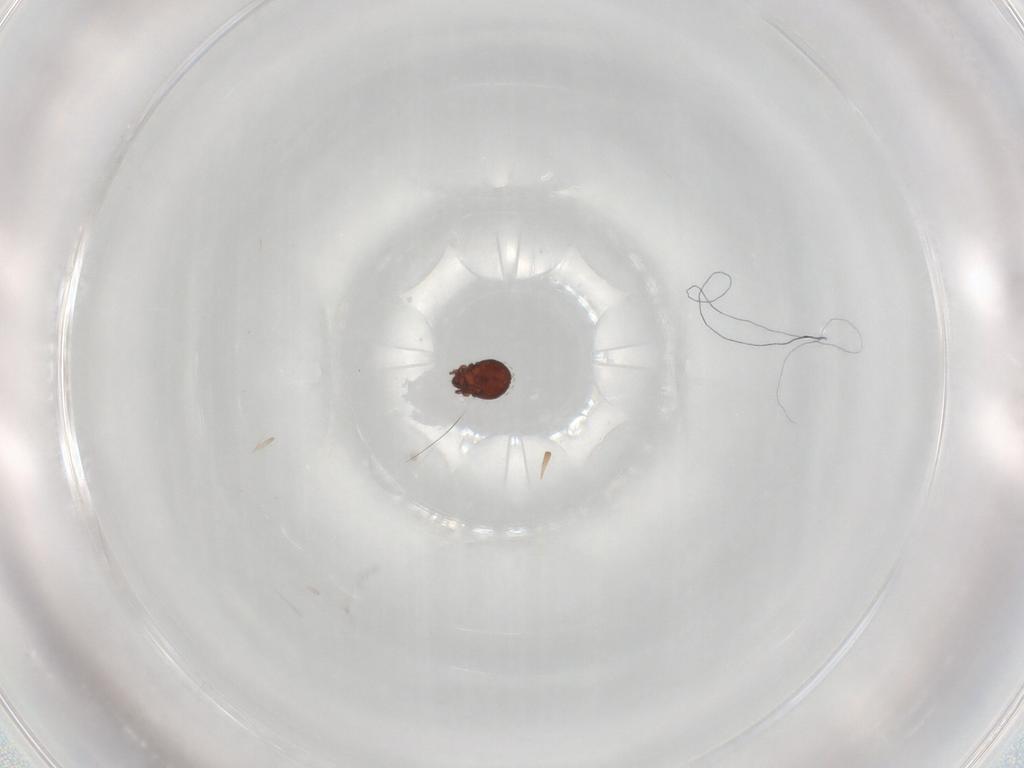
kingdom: Animalia
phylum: Arthropoda
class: Arachnida
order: Sarcoptiformes
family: Scheloribatidae
